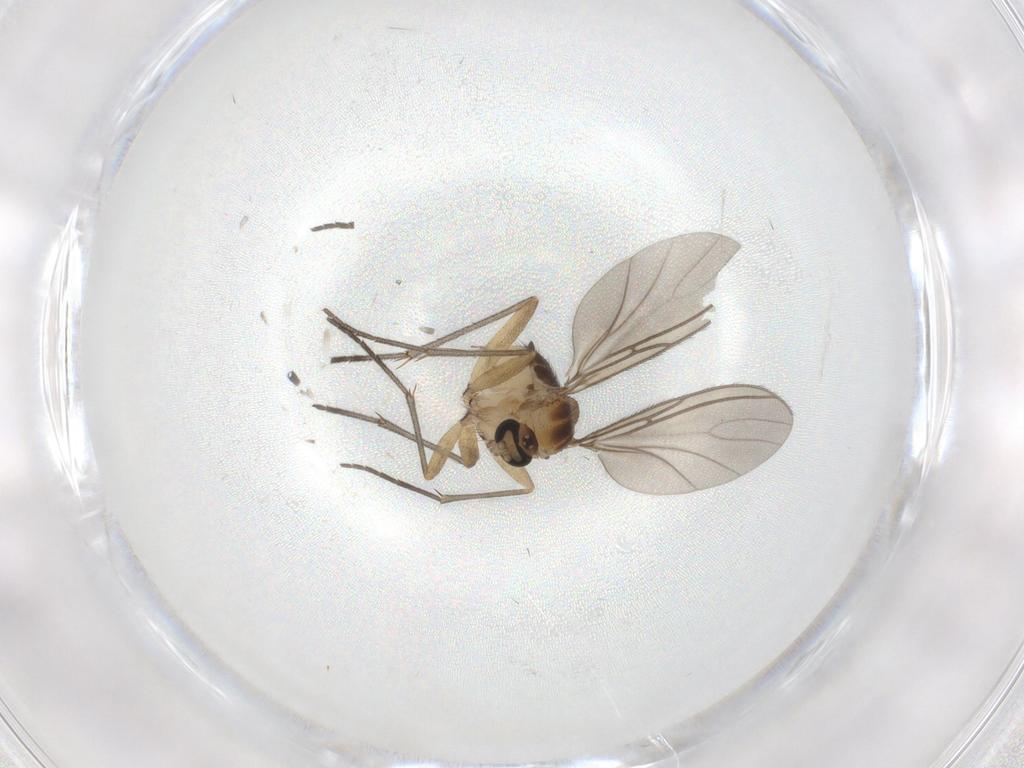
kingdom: Animalia
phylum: Arthropoda
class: Insecta
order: Diptera
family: Sciaridae
